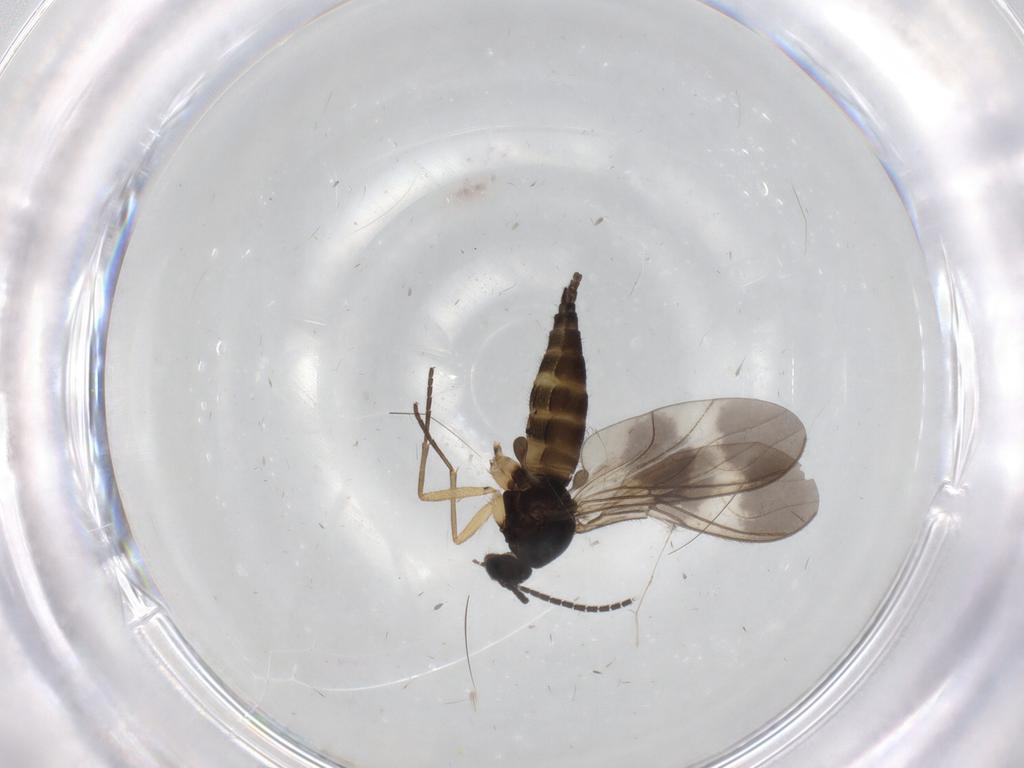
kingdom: Animalia
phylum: Arthropoda
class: Insecta
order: Diptera
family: Sciaridae
